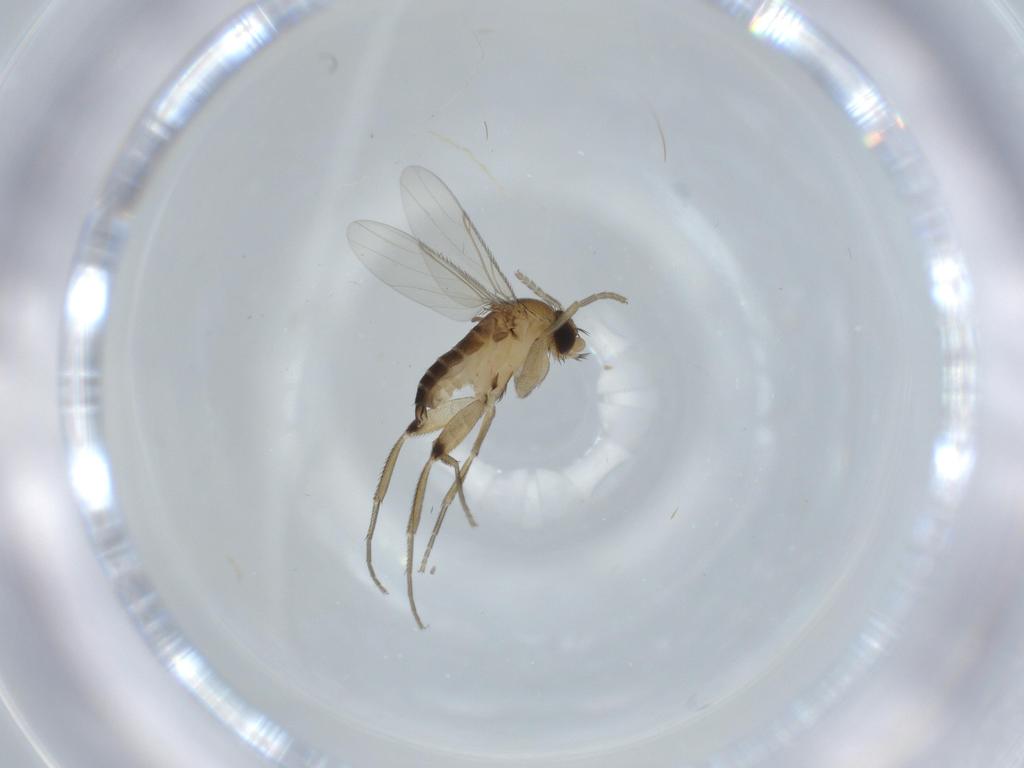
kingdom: Animalia
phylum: Arthropoda
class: Insecta
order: Diptera
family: Phoridae
